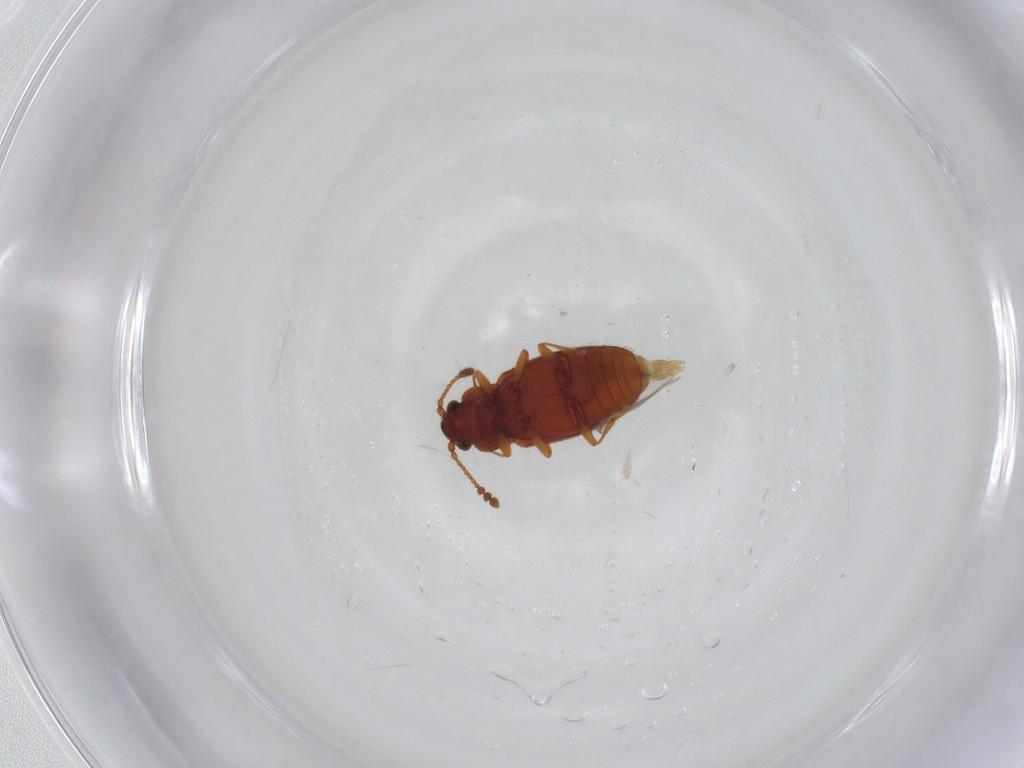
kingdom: Animalia
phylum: Arthropoda
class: Insecta
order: Coleoptera
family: Cryptophagidae
